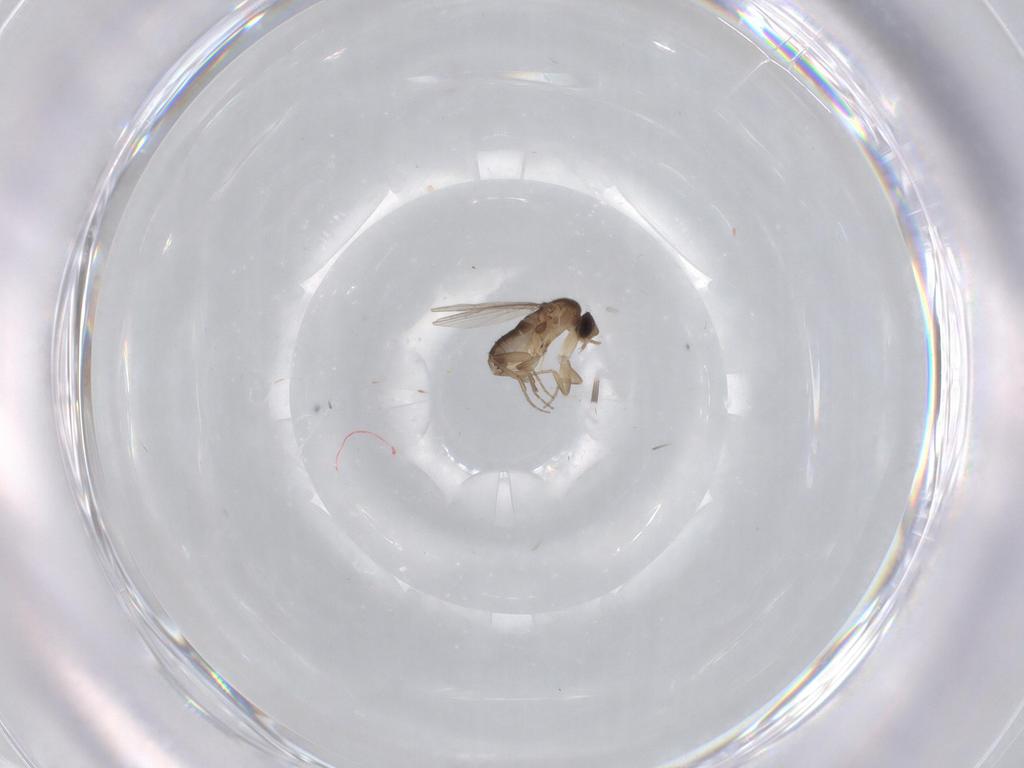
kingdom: Animalia
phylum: Arthropoda
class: Insecta
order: Diptera
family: Phoridae
